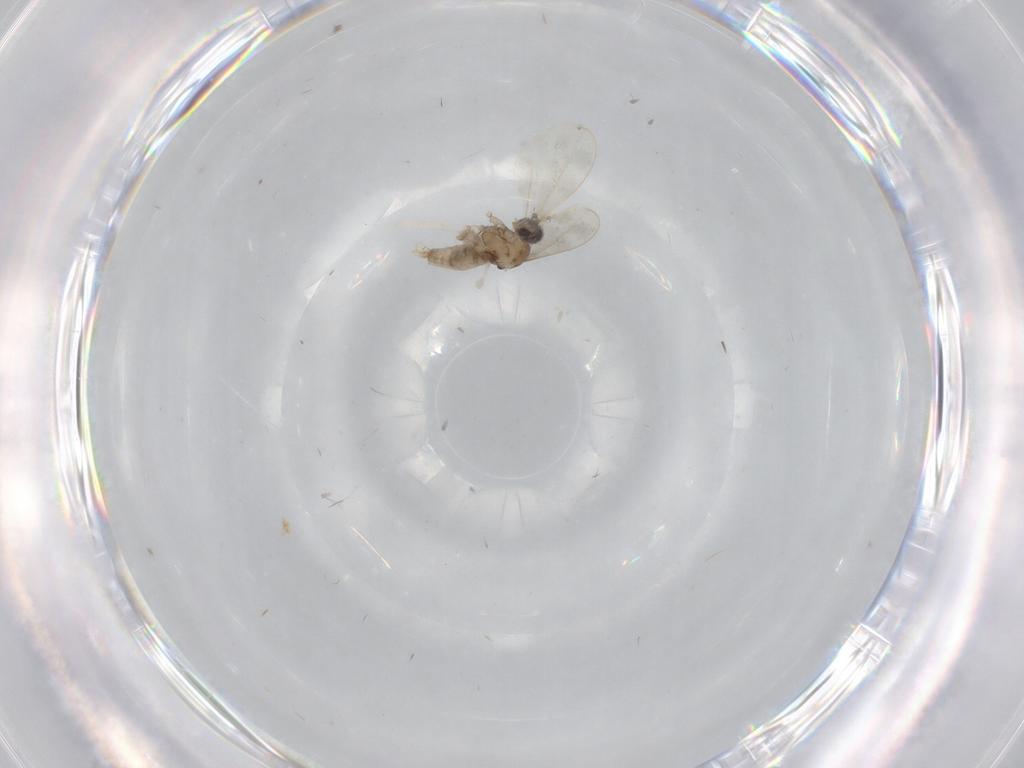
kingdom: Animalia
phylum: Arthropoda
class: Insecta
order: Diptera
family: Cecidomyiidae
